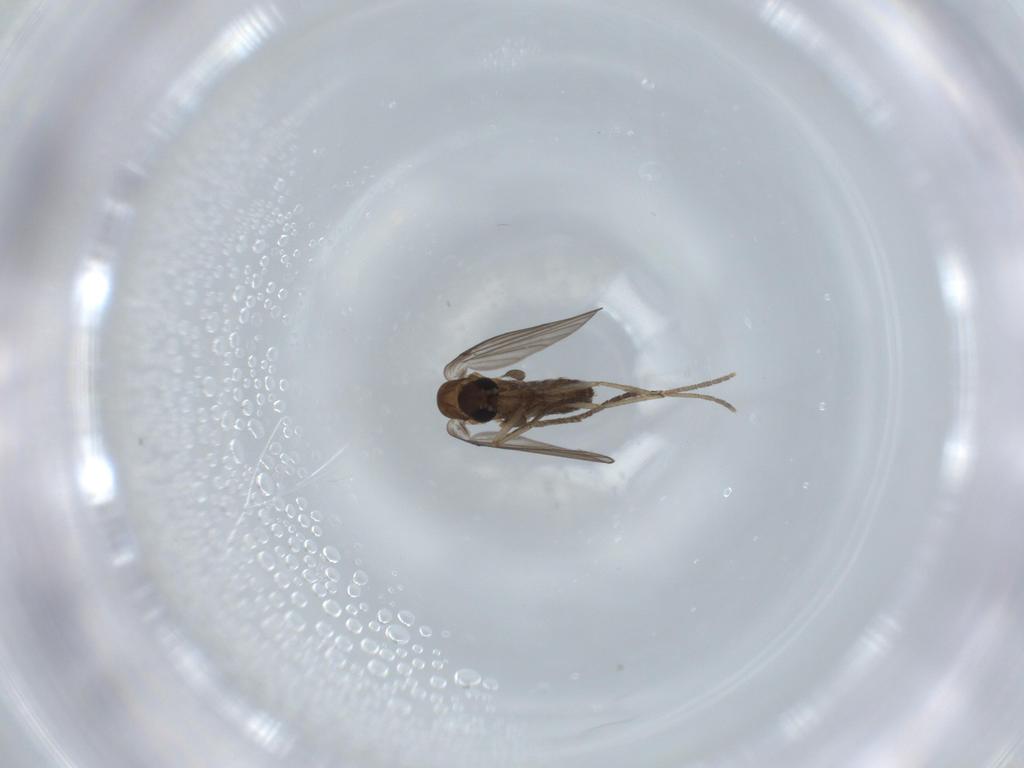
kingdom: Animalia
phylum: Arthropoda
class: Insecta
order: Diptera
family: Psychodidae
